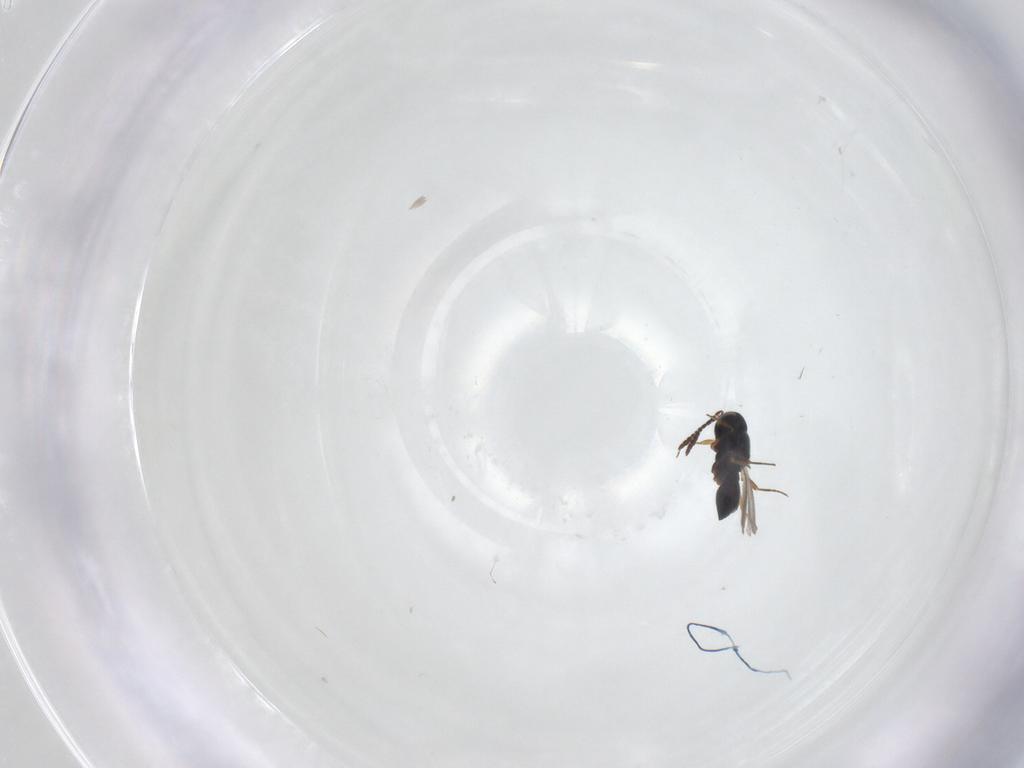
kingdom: Animalia
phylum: Arthropoda
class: Insecta
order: Hymenoptera
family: Scelionidae
